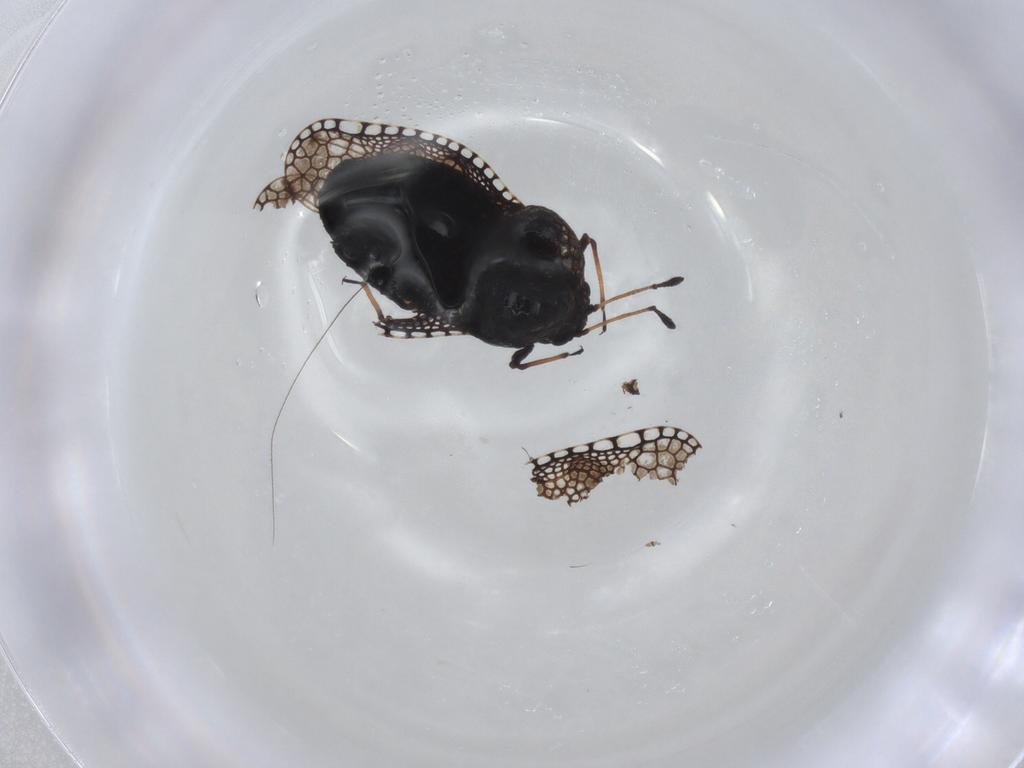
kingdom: Animalia
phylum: Arthropoda
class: Insecta
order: Hemiptera
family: Tingidae
